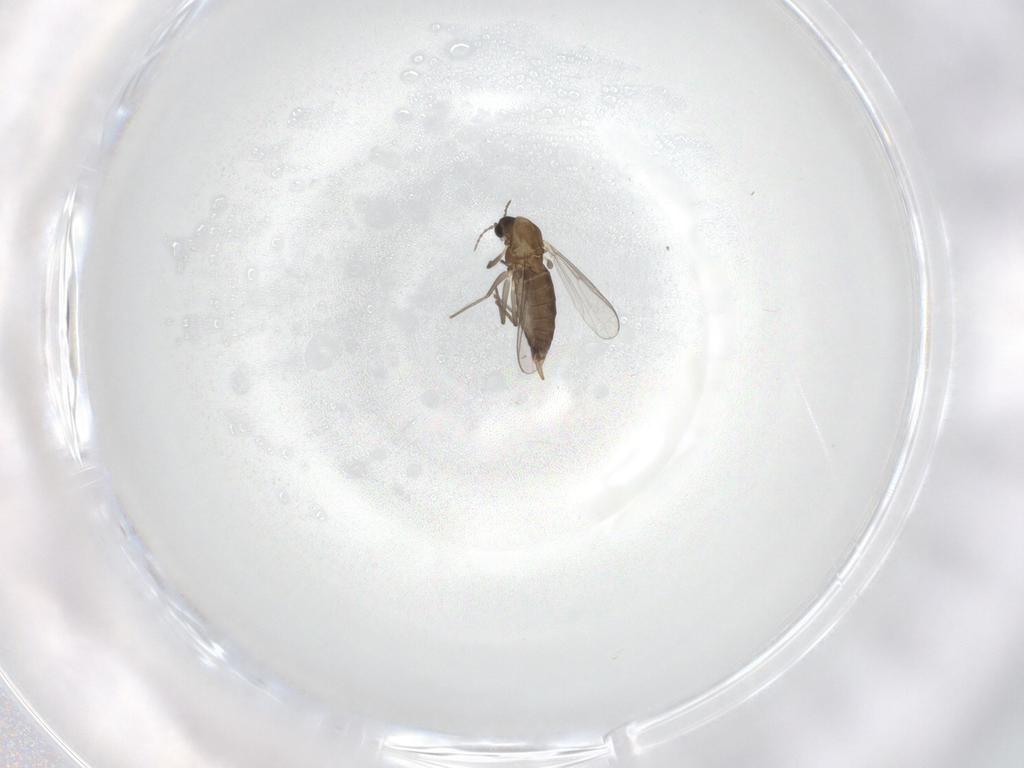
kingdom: Animalia
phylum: Arthropoda
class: Insecta
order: Diptera
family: Chironomidae
